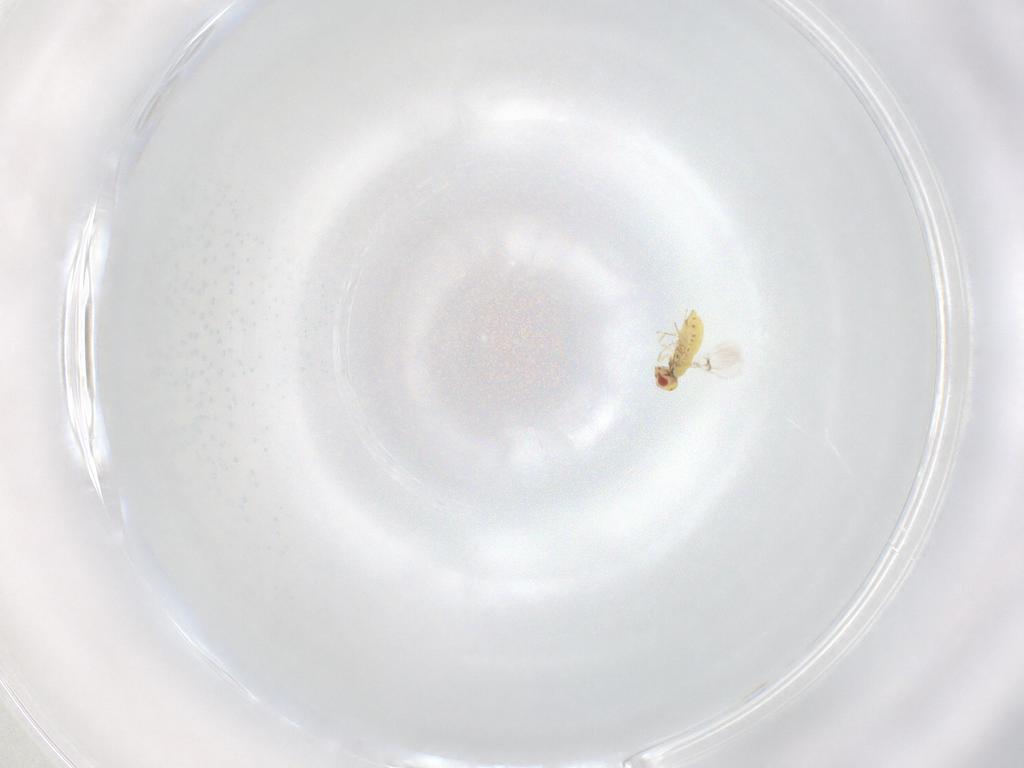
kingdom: Animalia
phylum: Arthropoda
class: Insecta
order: Hymenoptera
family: Trichogrammatidae
